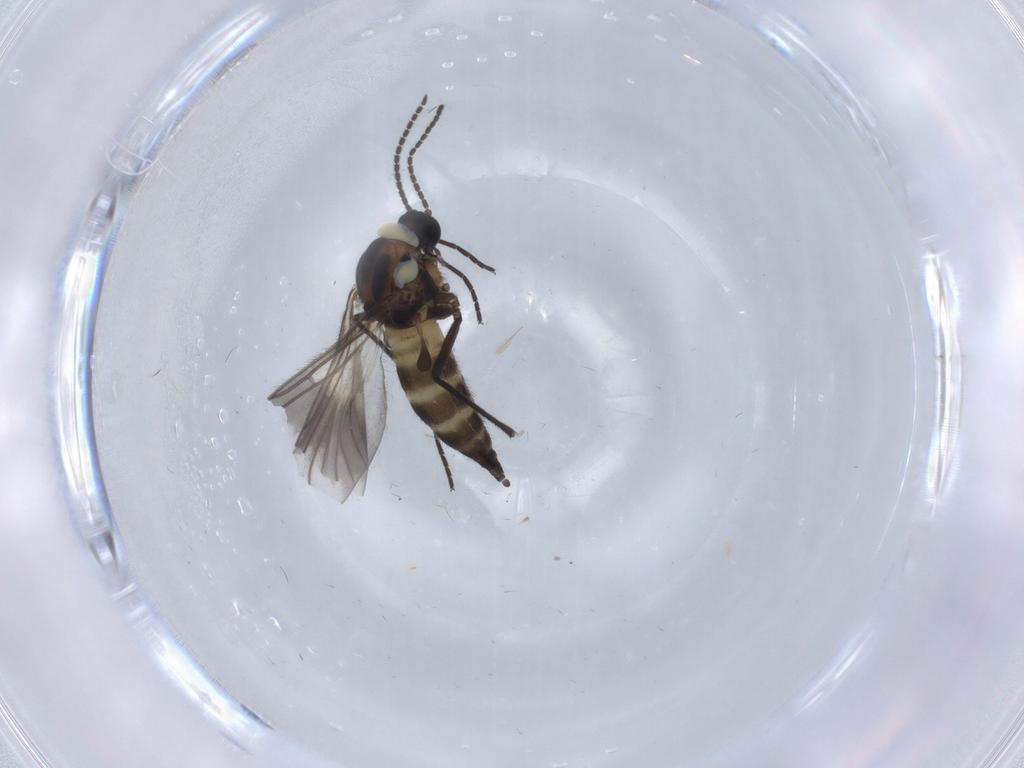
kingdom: Animalia
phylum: Arthropoda
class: Insecta
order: Diptera
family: Sciaridae
